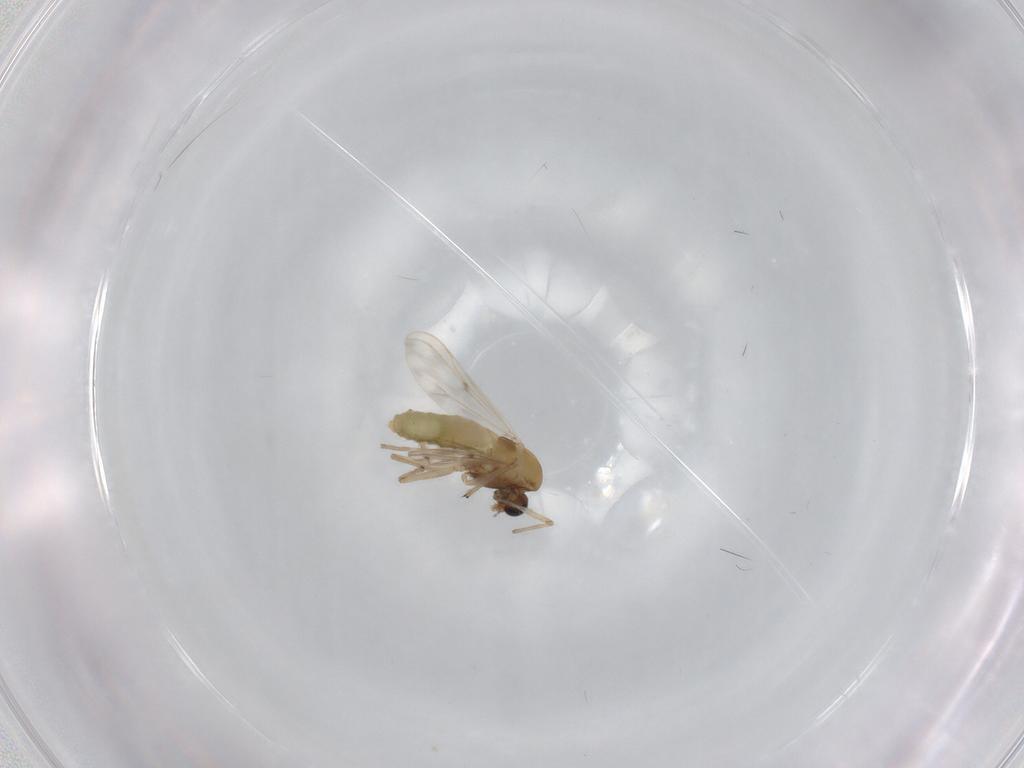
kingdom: Animalia
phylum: Arthropoda
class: Insecta
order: Diptera
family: Chironomidae
